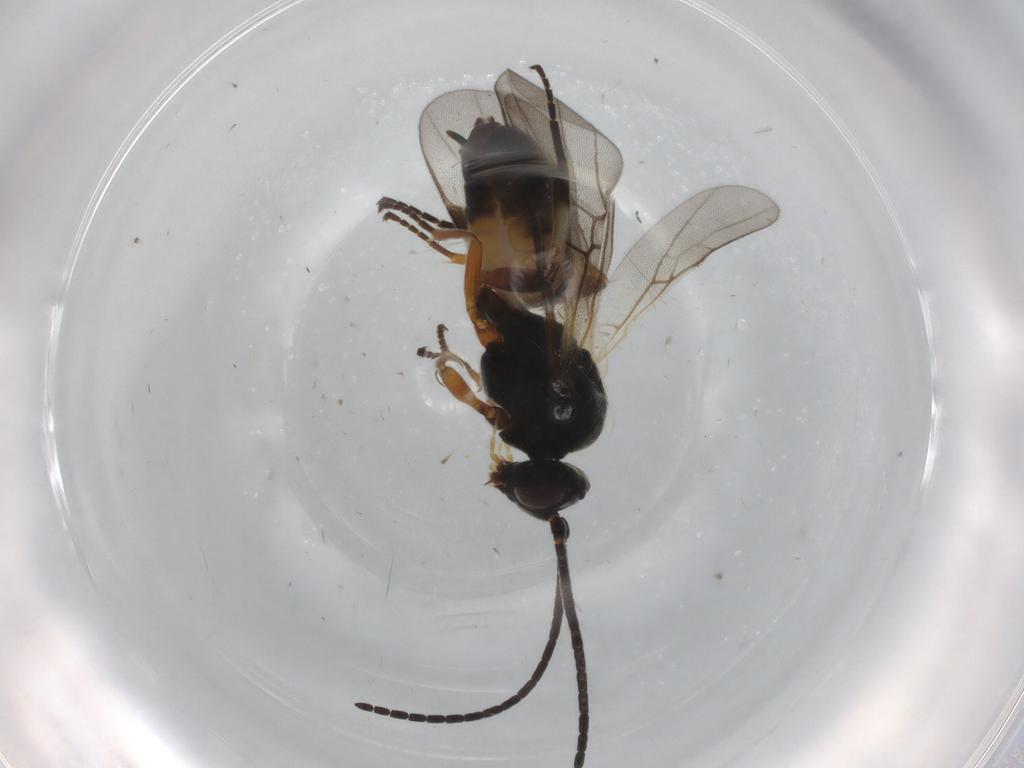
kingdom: Animalia
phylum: Arthropoda
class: Insecta
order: Hymenoptera
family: Braconidae
